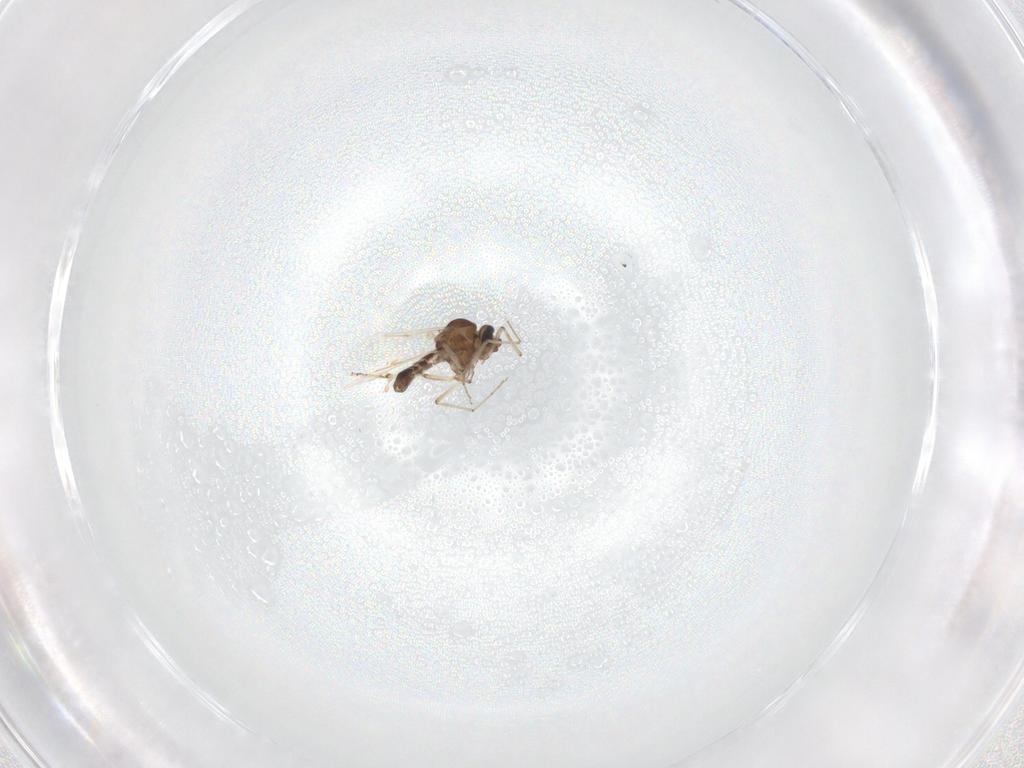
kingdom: Animalia
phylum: Arthropoda
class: Insecta
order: Diptera
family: Ceratopogonidae
